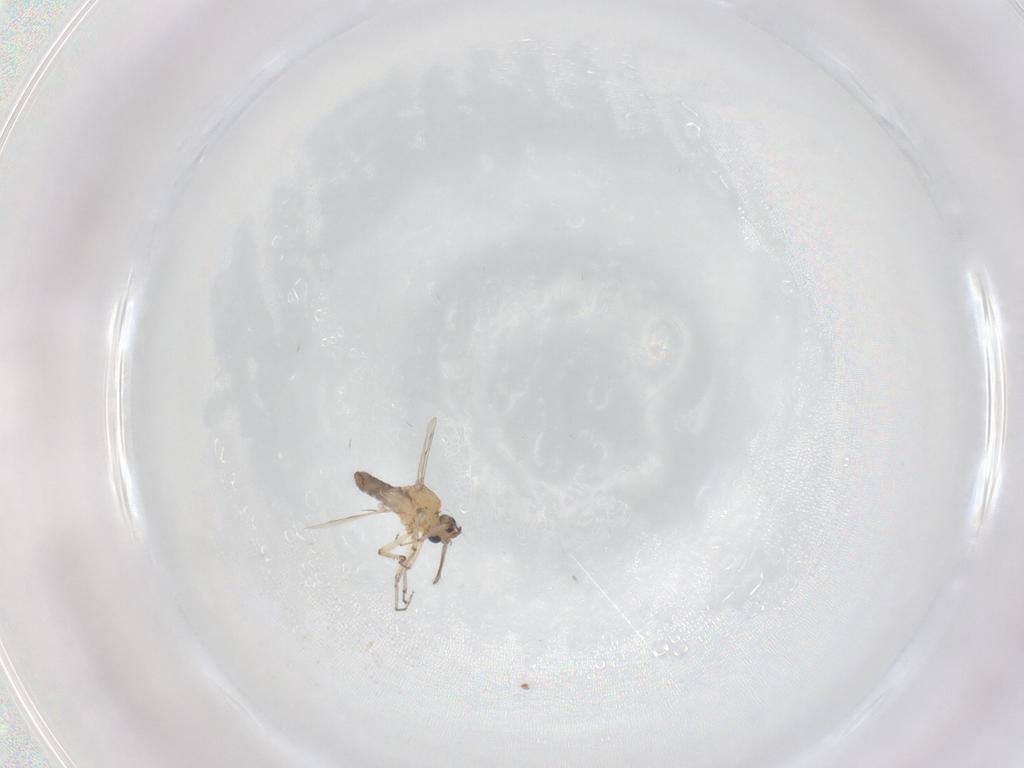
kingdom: Animalia
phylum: Arthropoda
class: Insecta
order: Diptera
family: Ceratopogonidae
